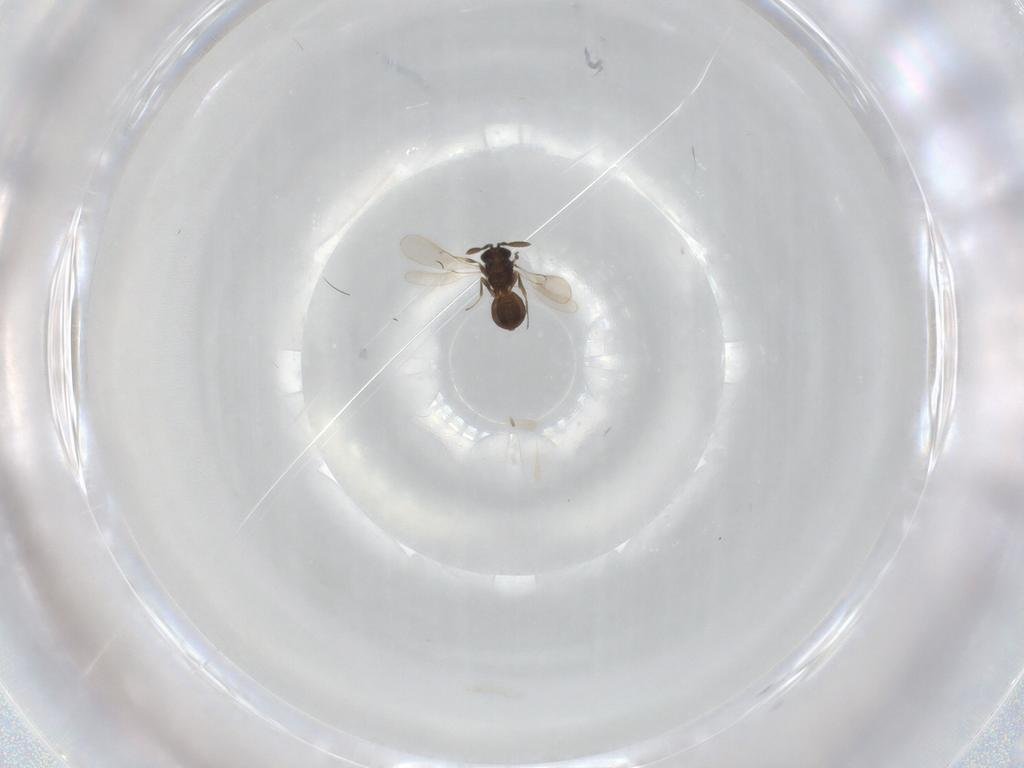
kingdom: Animalia
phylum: Arthropoda
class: Insecta
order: Hymenoptera
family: Scelionidae
